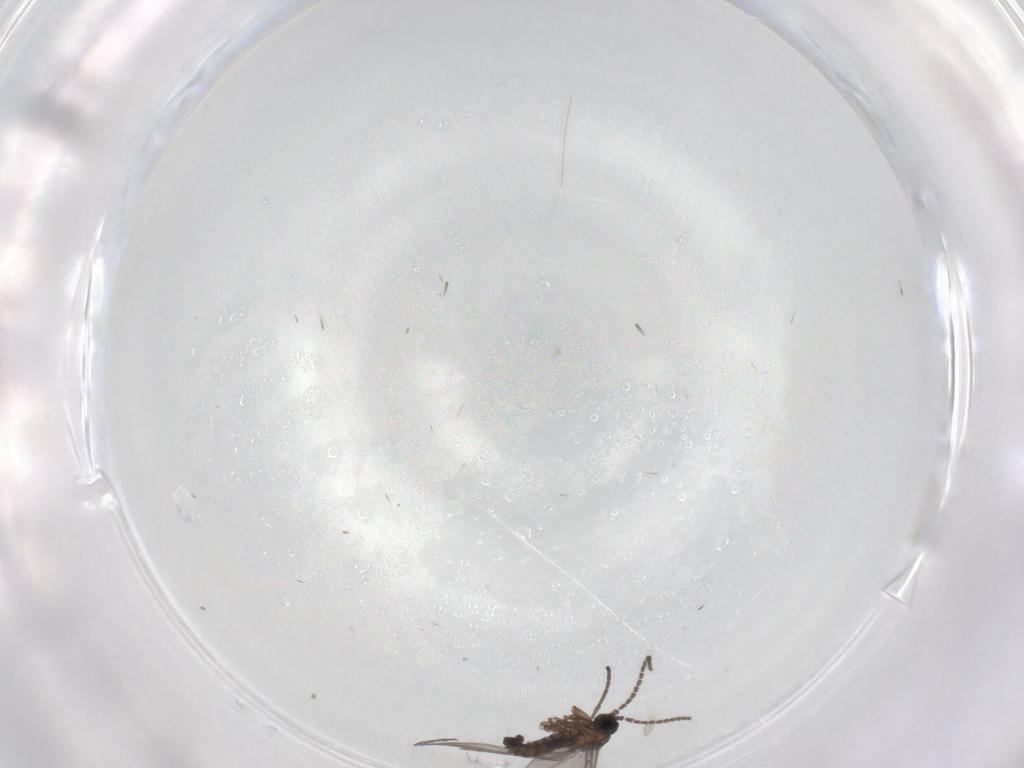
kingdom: Animalia
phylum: Arthropoda
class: Insecta
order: Diptera
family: Sciaridae
